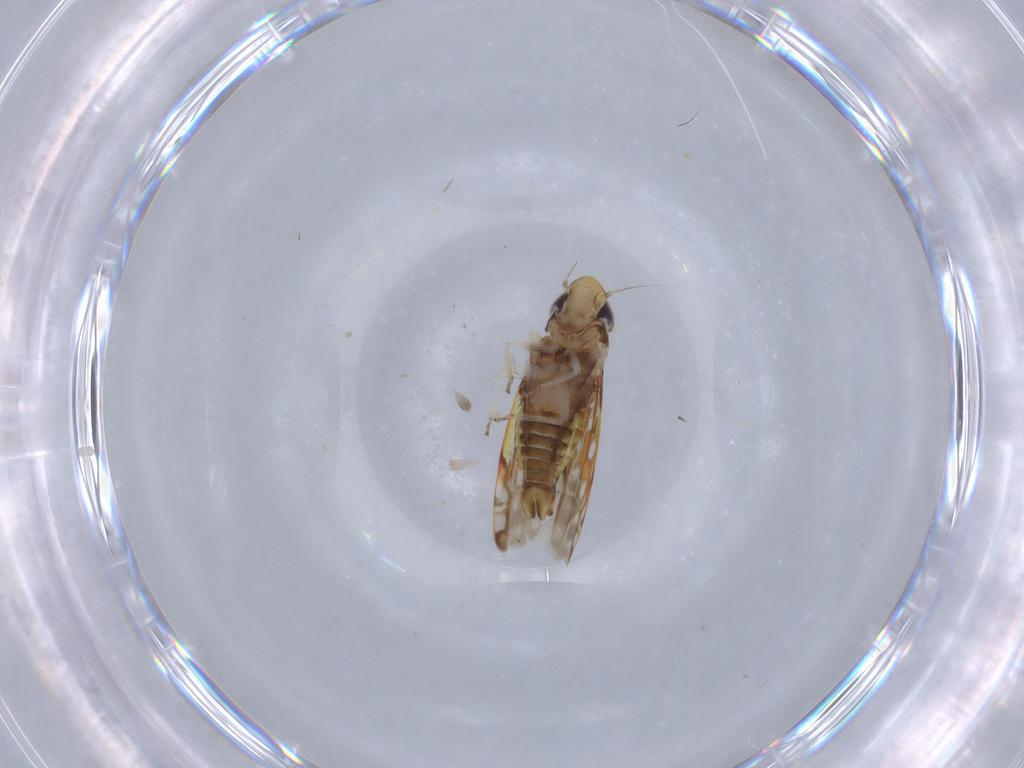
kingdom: Animalia
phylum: Arthropoda
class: Insecta
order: Hemiptera
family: Cicadellidae
